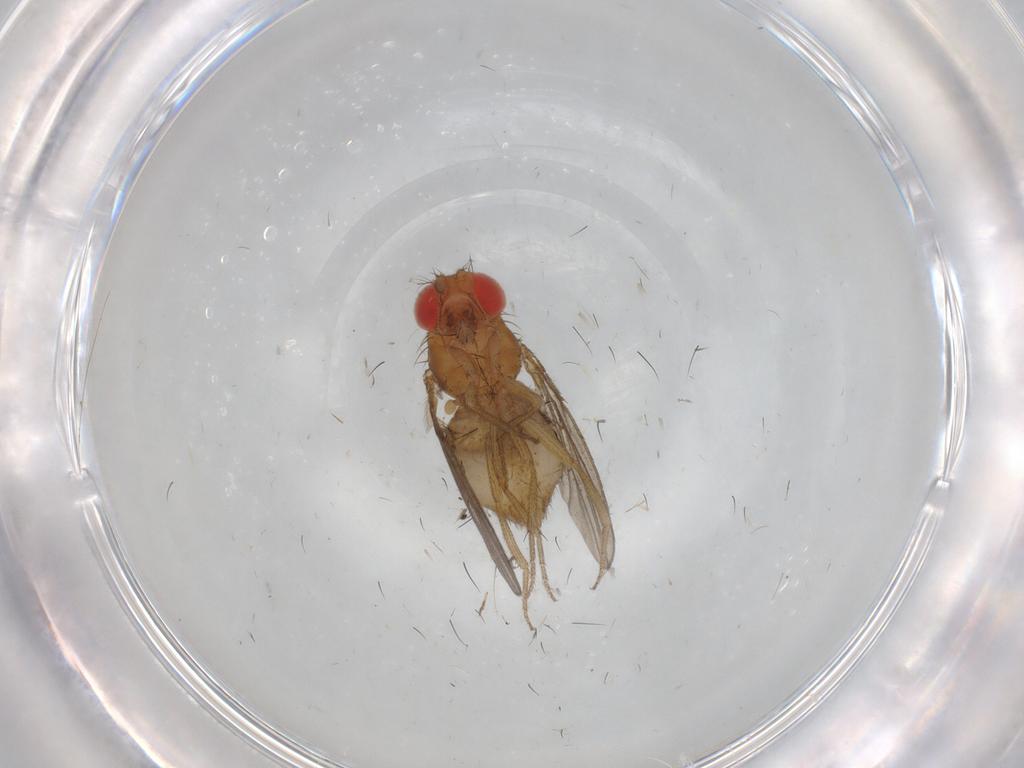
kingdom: Animalia
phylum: Arthropoda
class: Insecta
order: Diptera
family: Drosophilidae
